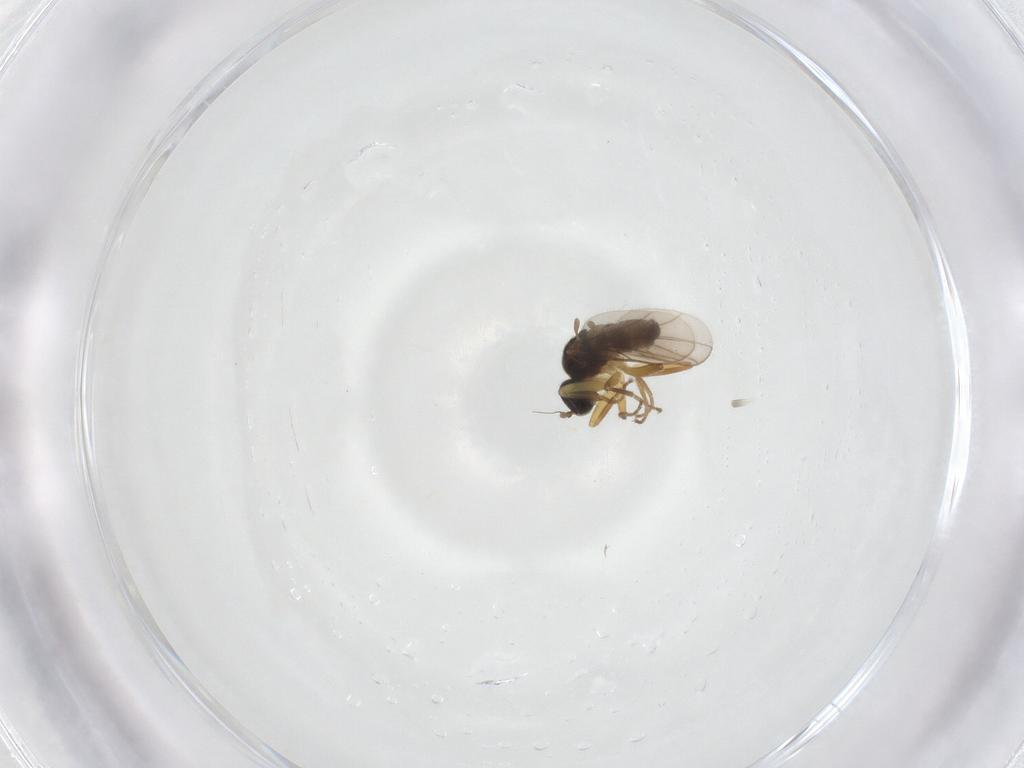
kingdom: Animalia
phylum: Arthropoda
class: Insecta
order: Diptera
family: Hybotidae
